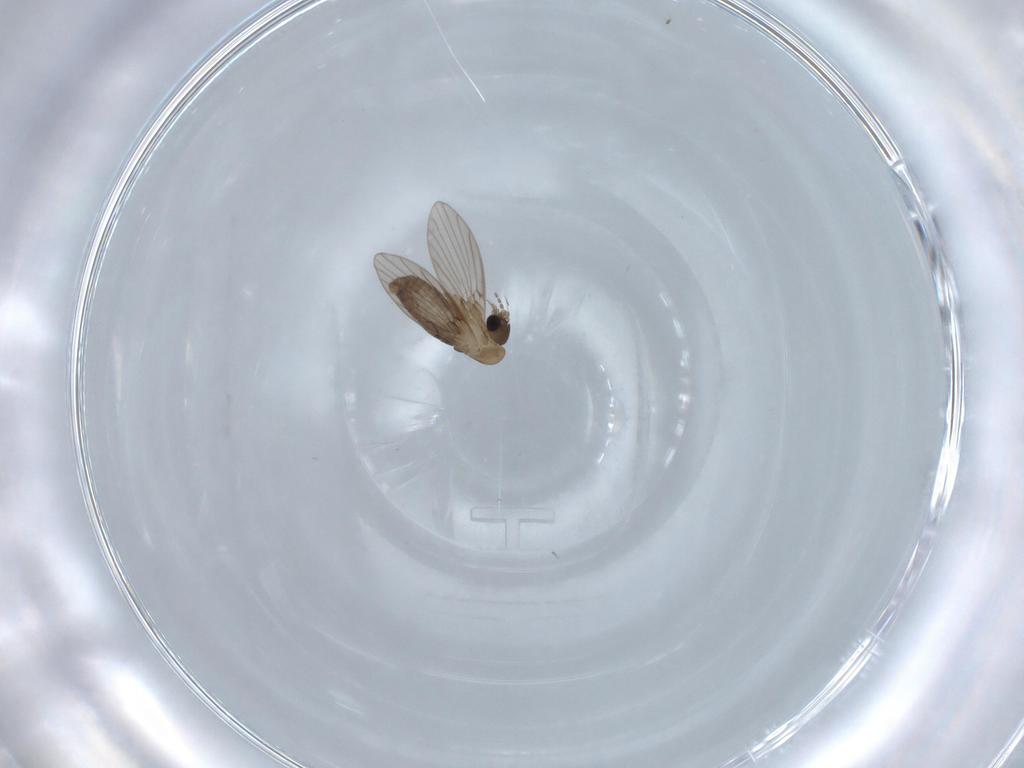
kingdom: Animalia
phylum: Arthropoda
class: Insecta
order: Diptera
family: Psychodidae
